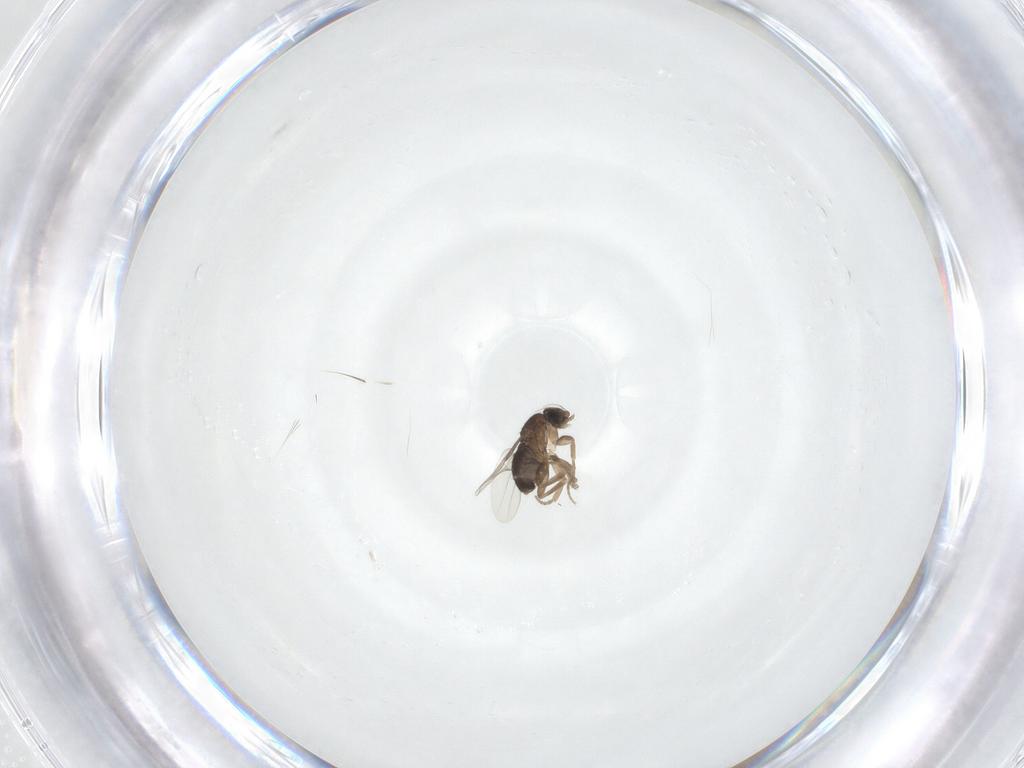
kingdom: Animalia
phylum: Arthropoda
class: Insecta
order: Diptera
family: Phoridae
